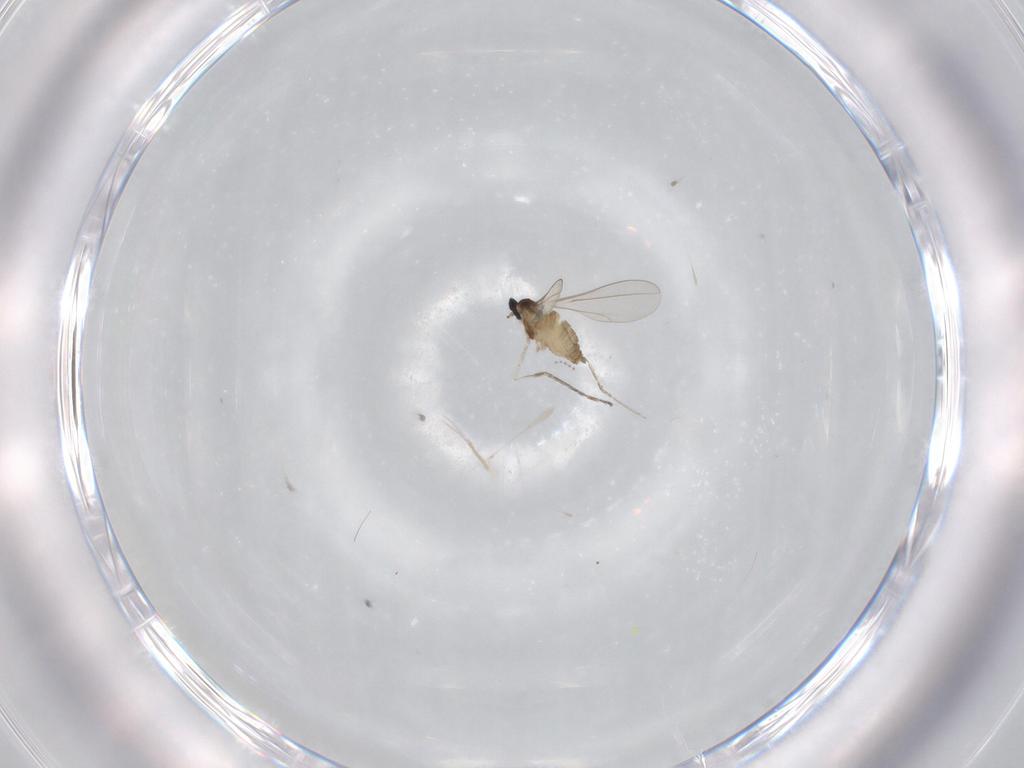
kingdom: Animalia
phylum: Arthropoda
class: Insecta
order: Diptera
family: Cecidomyiidae
